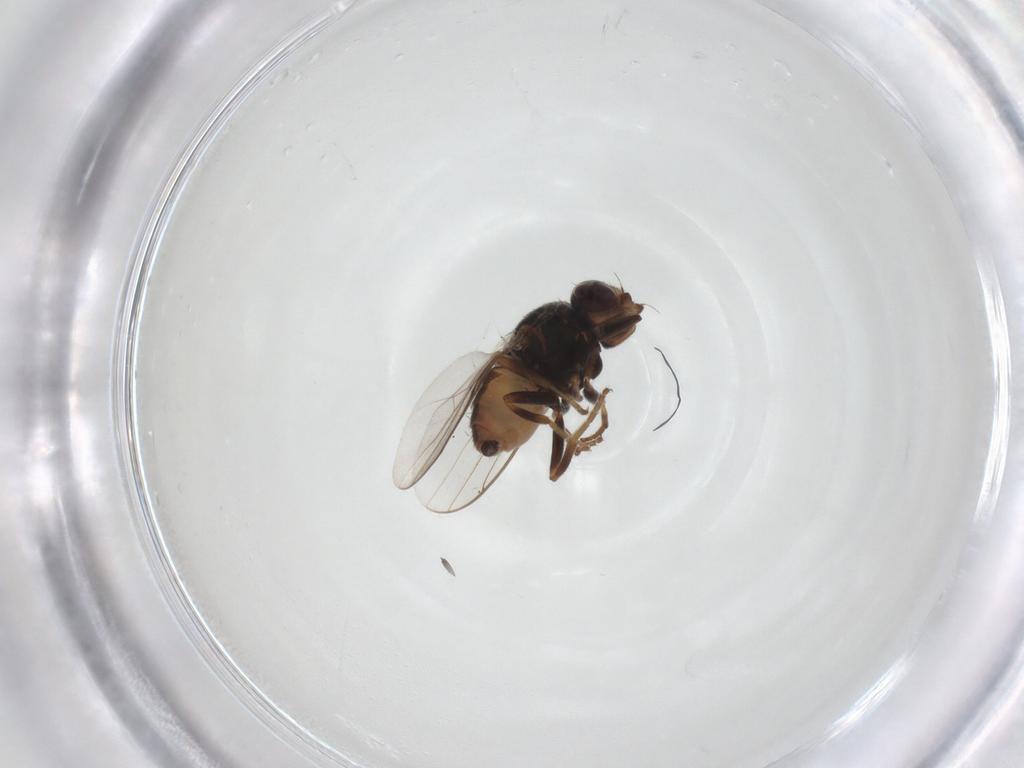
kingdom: Animalia
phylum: Arthropoda
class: Insecta
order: Diptera
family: Chloropidae
